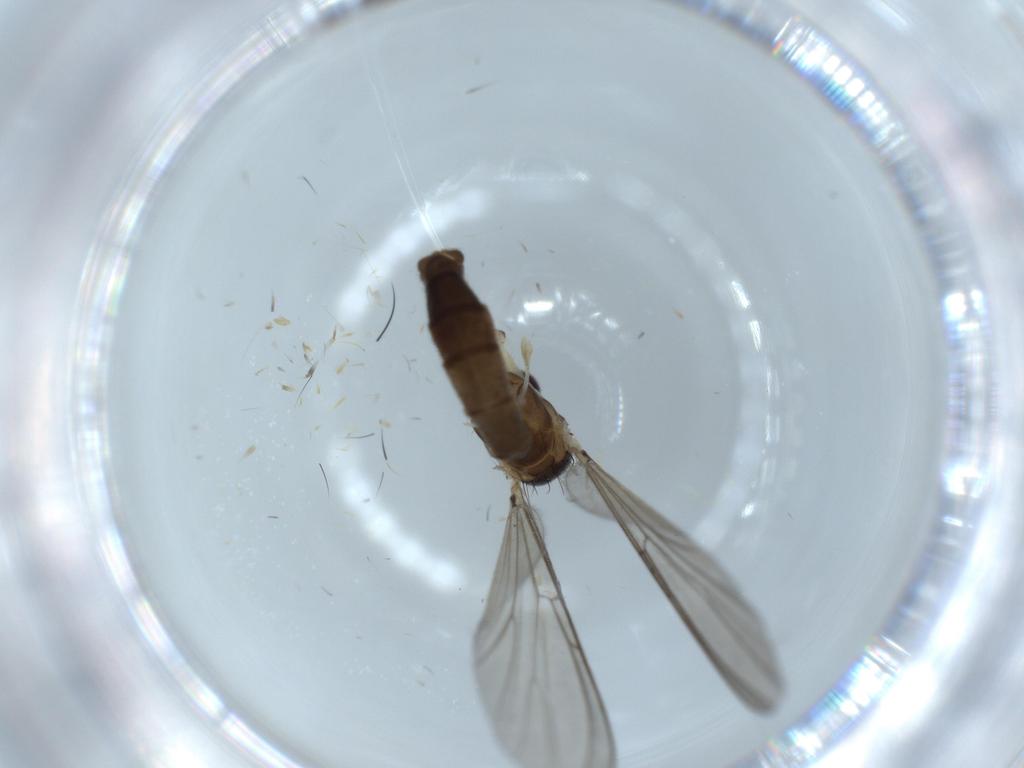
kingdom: Animalia
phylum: Arthropoda
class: Insecta
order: Diptera
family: Mycetophilidae
